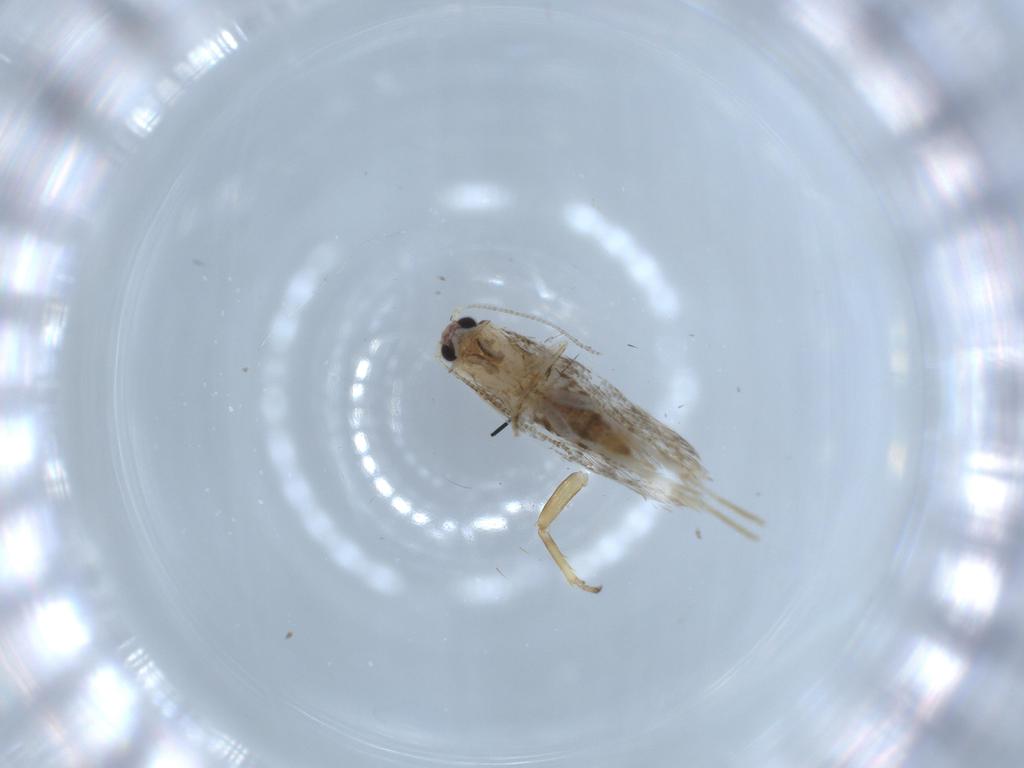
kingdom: Animalia
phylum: Arthropoda
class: Insecta
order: Lepidoptera
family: Tineidae
